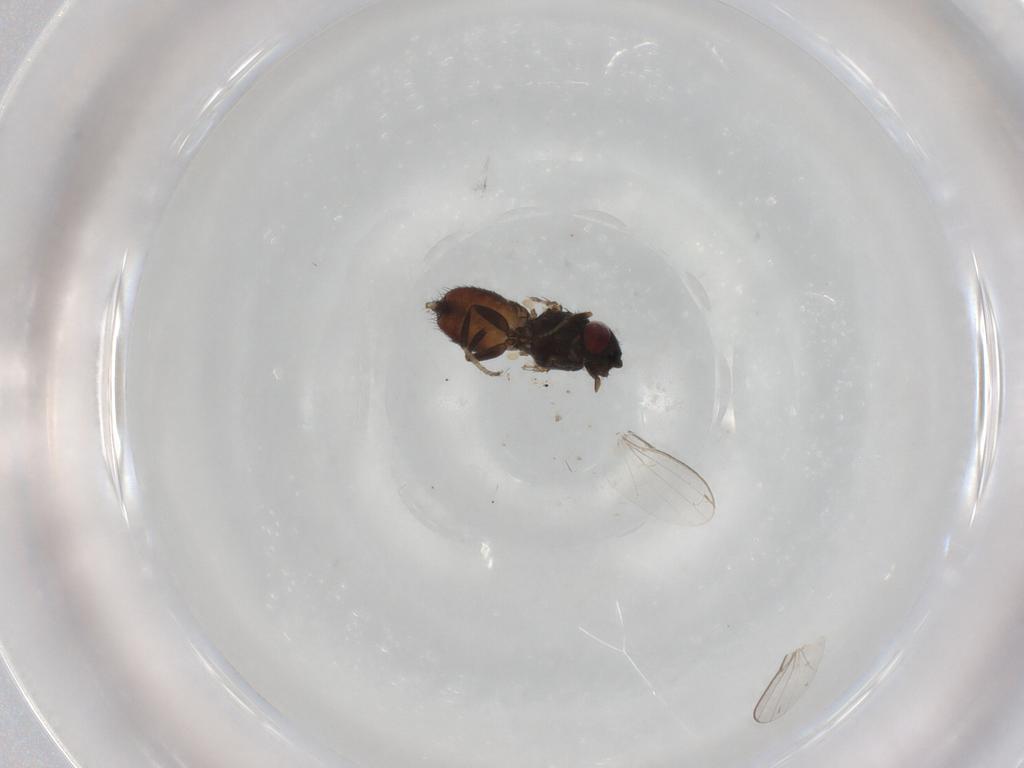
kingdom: Animalia
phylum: Arthropoda
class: Insecta
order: Diptera
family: Milichiidae
